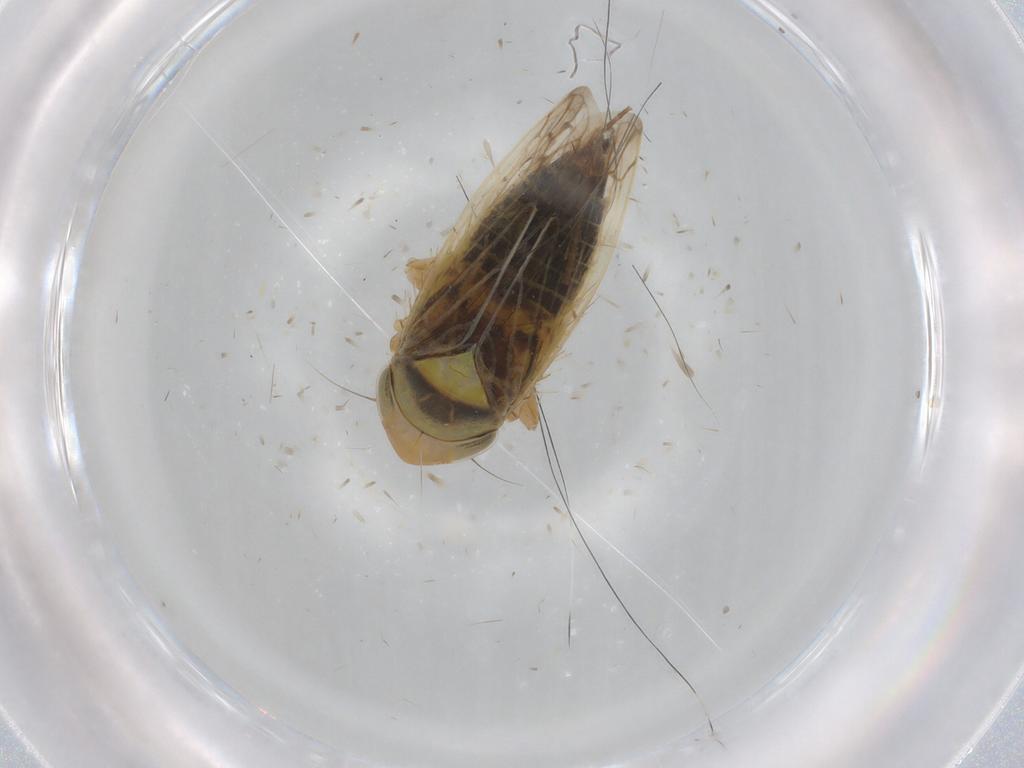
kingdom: Animalia
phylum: Arthropoda
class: Insecta
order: Hemiptera
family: Cicadellidae
